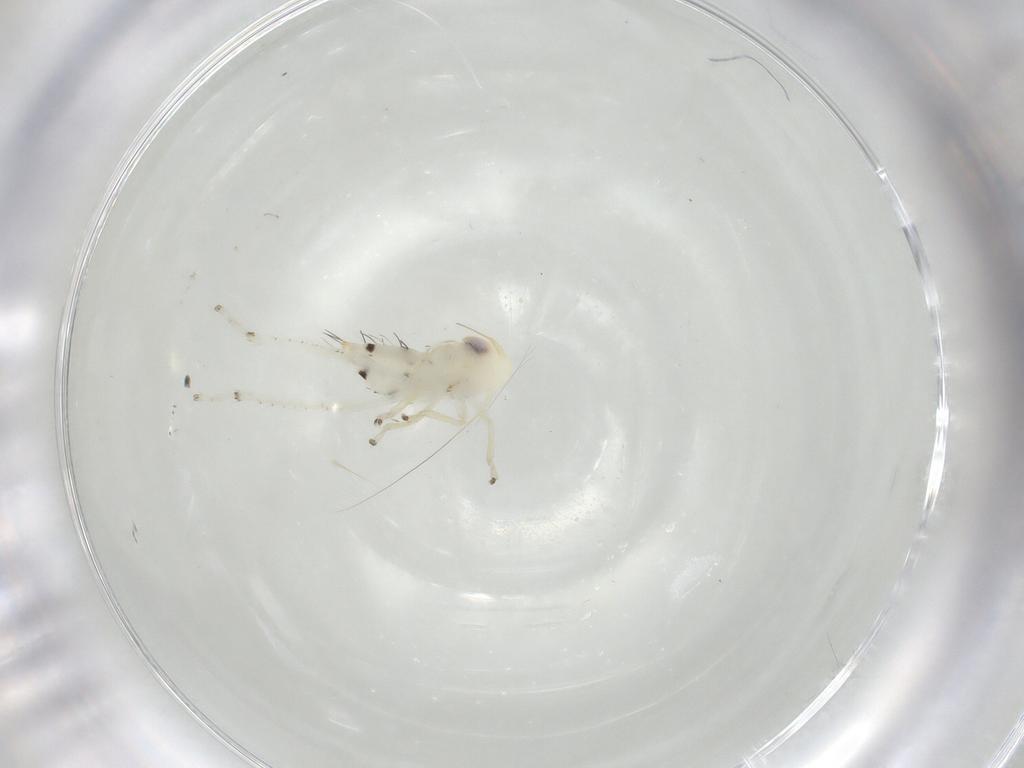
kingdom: Animalia
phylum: Arthropoda
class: Insecta
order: Hemiptera
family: Cicadellidae
